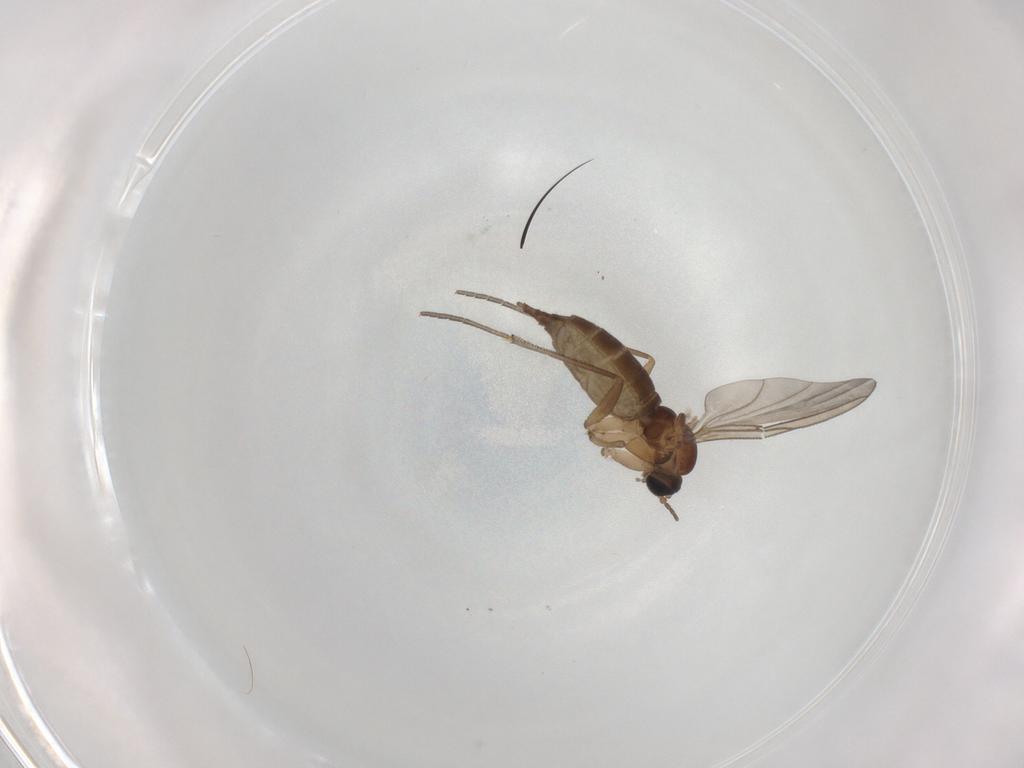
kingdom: Animalia
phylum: Arthropoda
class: Insecta
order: Diptera
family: Sciaridae
